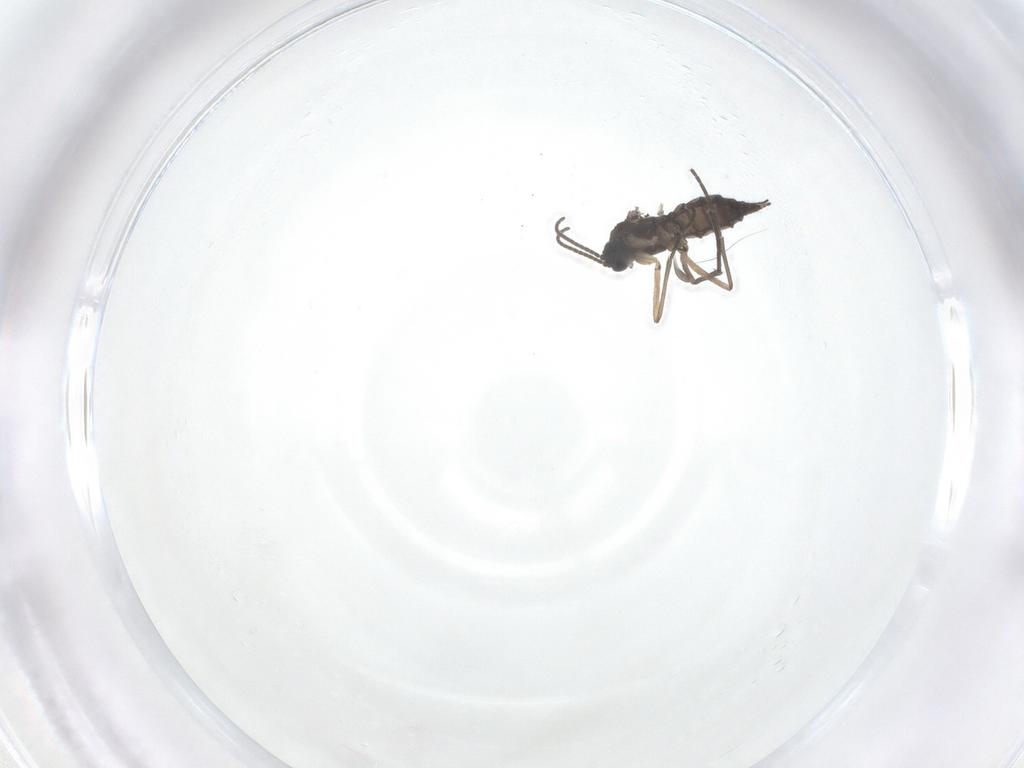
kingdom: Animalia
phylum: Arthropoda
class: Insecta
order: Diptera
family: Sciaridae
